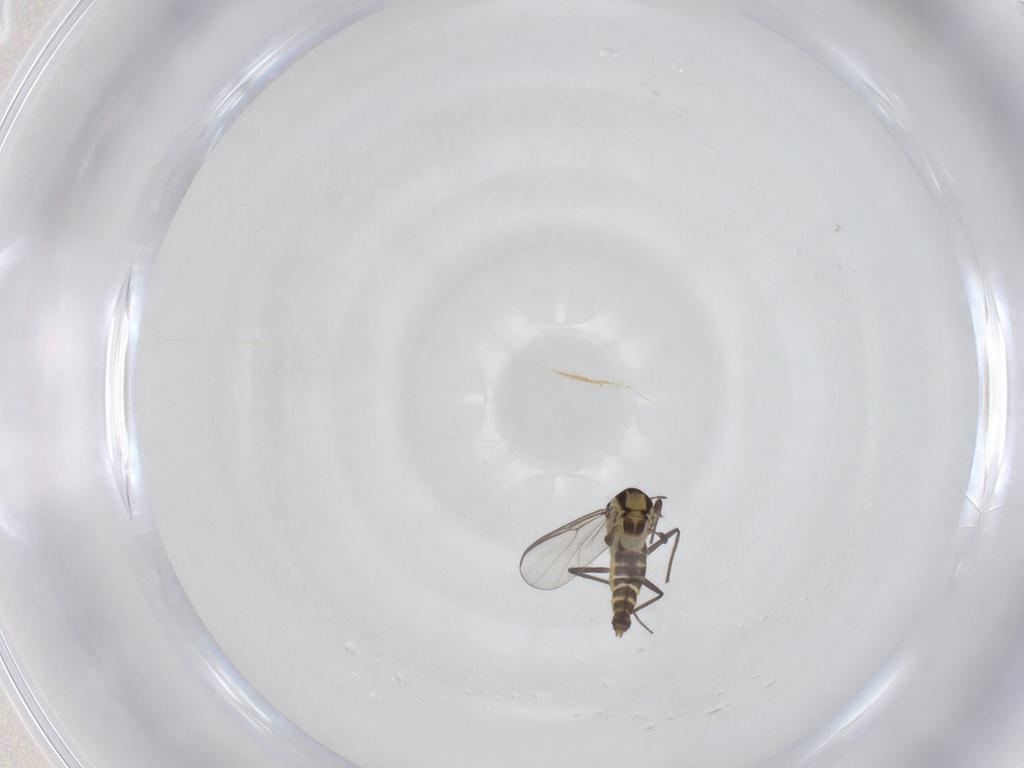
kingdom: Animalia
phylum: Arthropoda
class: Insecta
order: Diptera
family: Chironomidae
